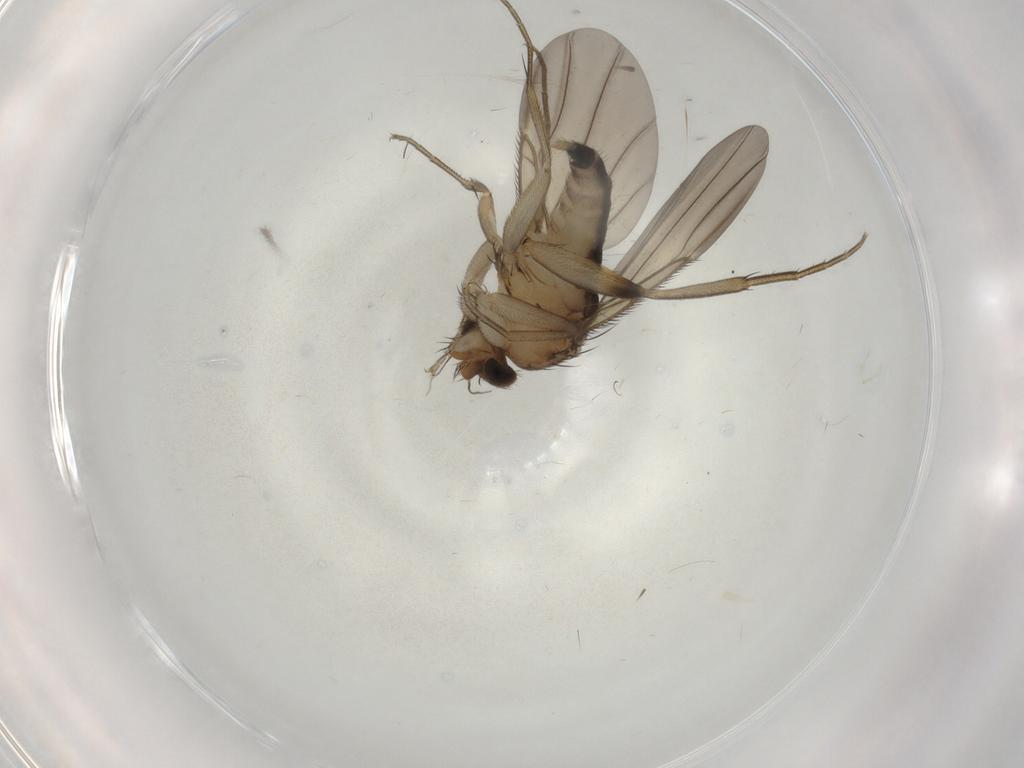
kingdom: Animalia
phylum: Arthropoda
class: Insecta
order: Diptera
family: Phoridae
